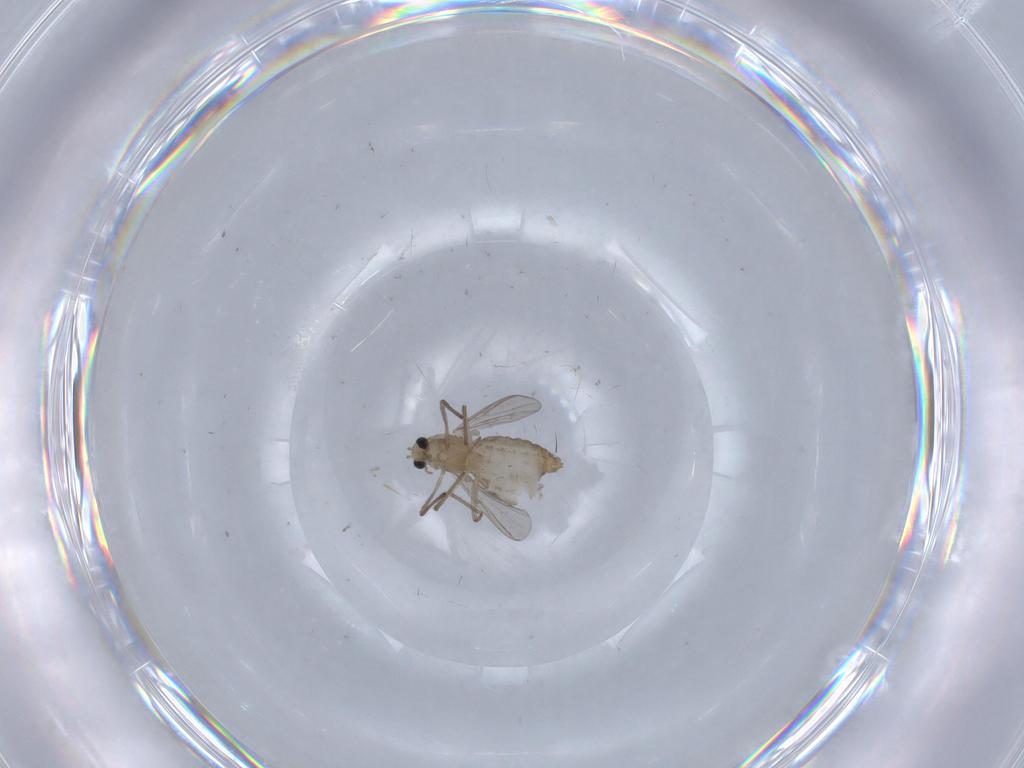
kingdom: Animalia
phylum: Arthropoda
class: Insecta
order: Diptera
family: Chironomidae
